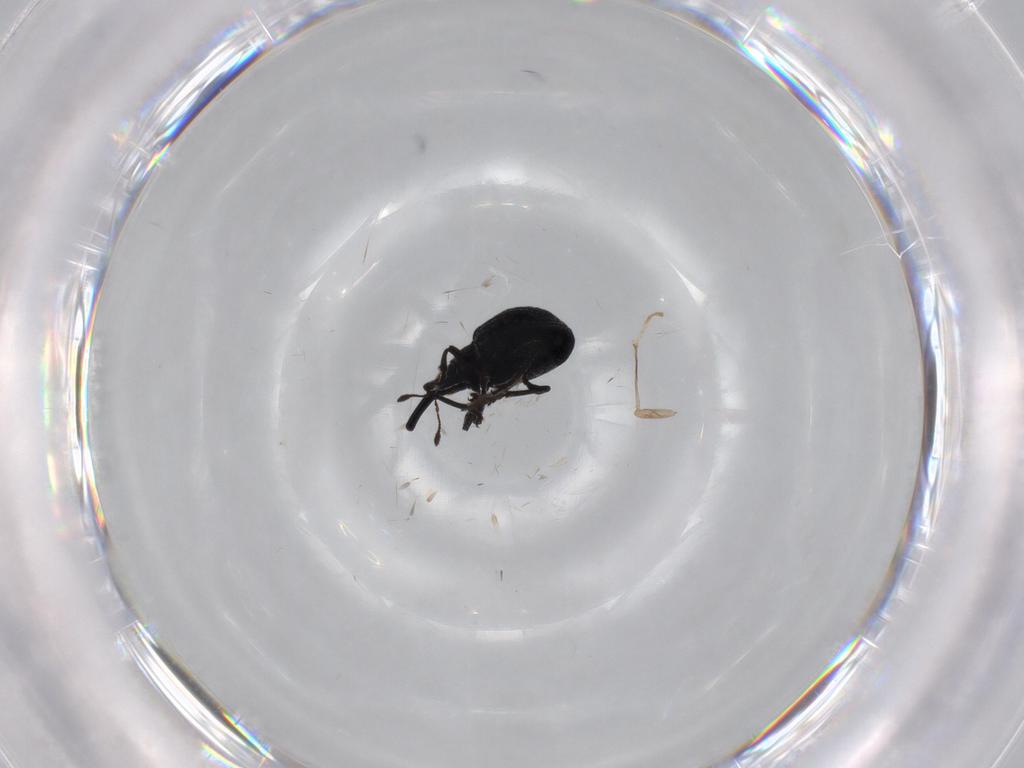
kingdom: Animalia
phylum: Arthropoda
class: Insecta
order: Coleoptera
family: Brentidae
